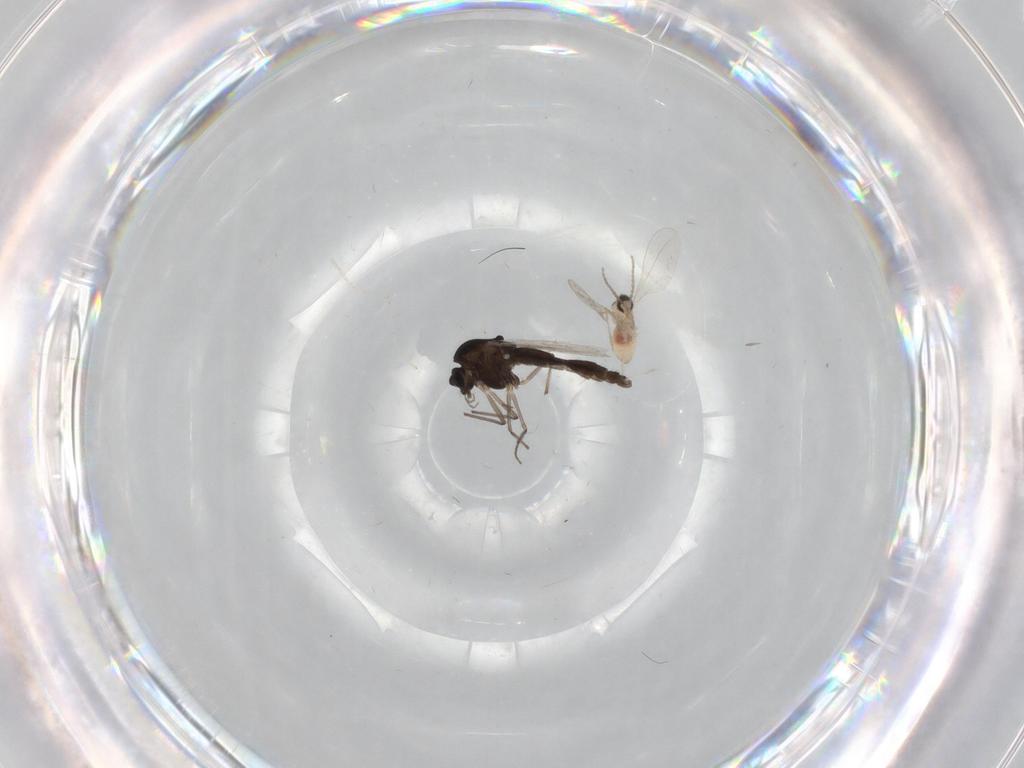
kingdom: Animalia
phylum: Arthropoda
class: Insecta
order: Diptera
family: Chironomidae
